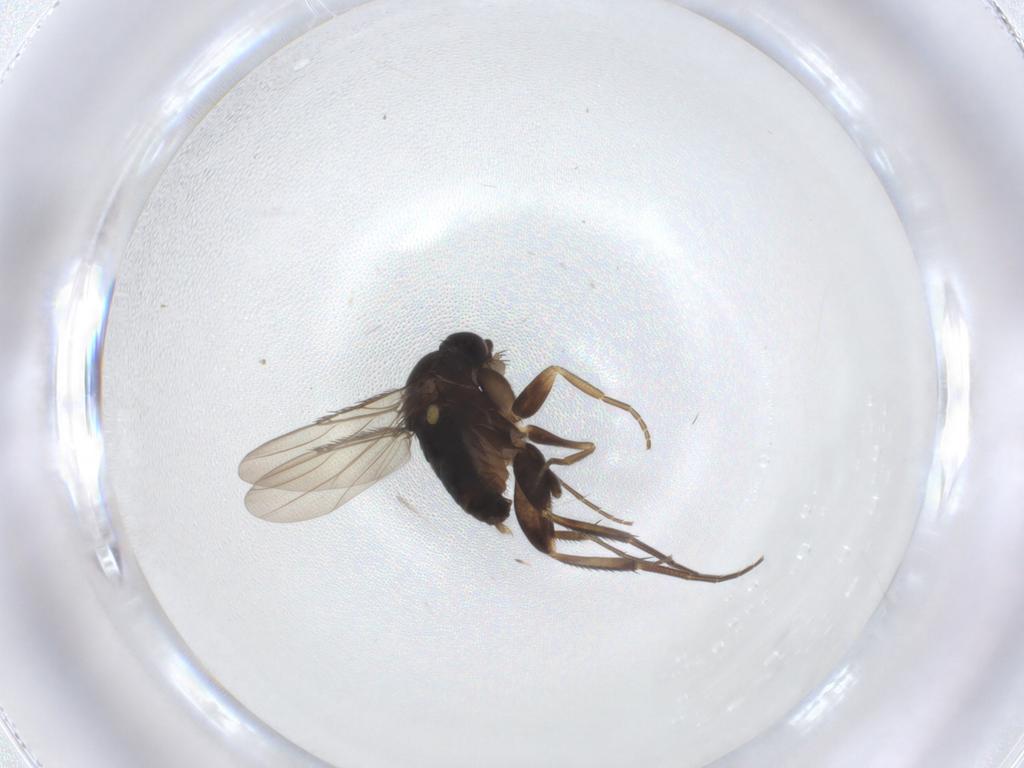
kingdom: Animalia
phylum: Arthropoda
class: Insecta
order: Diptera
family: Phoridae
